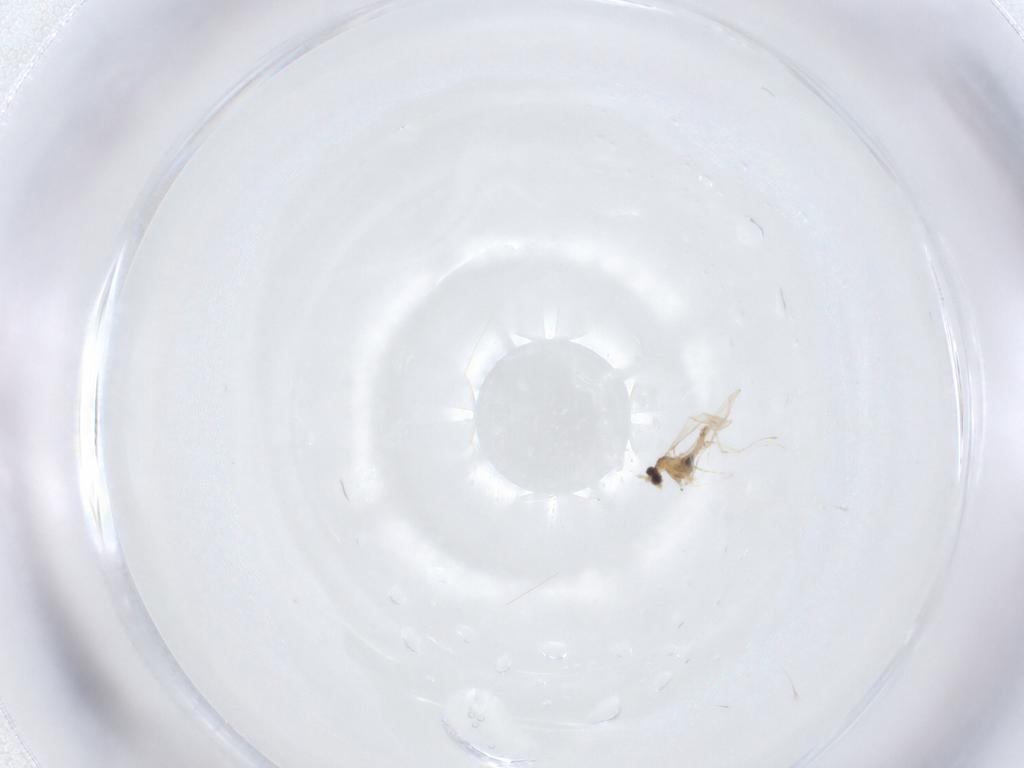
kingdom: Animalia
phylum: Arthropoda
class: Insecta
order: Diptera
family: Cecidomyiidae
